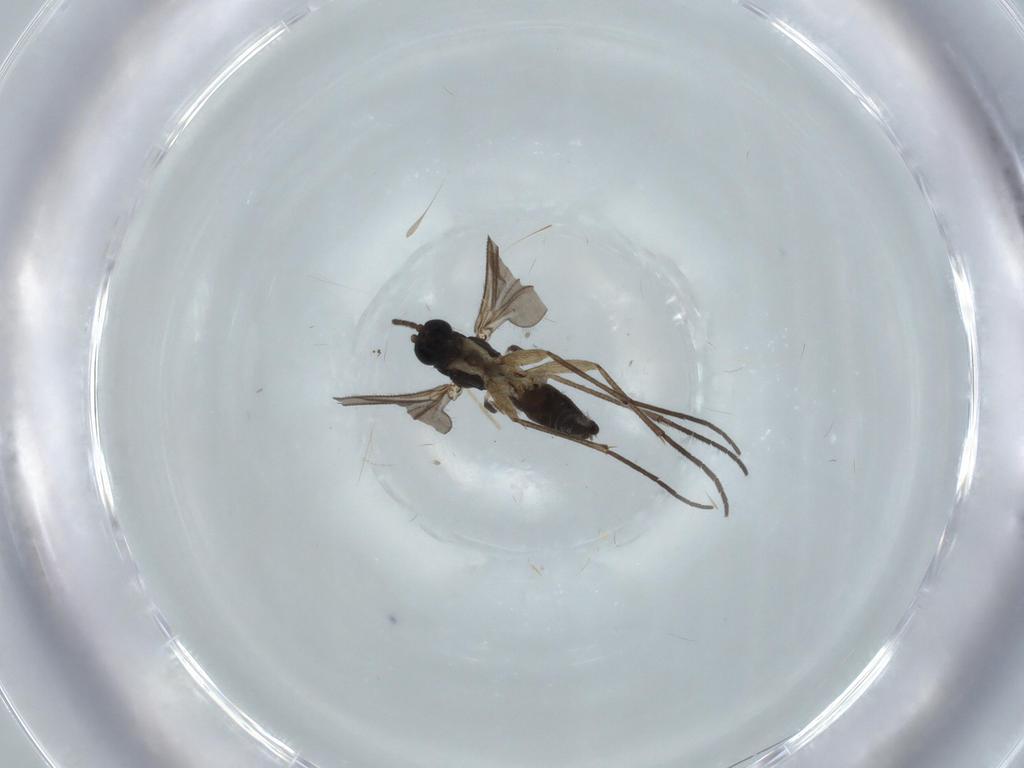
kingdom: Animalia
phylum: Arthropoda
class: Insecta
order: Diptera
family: Sciaridae
